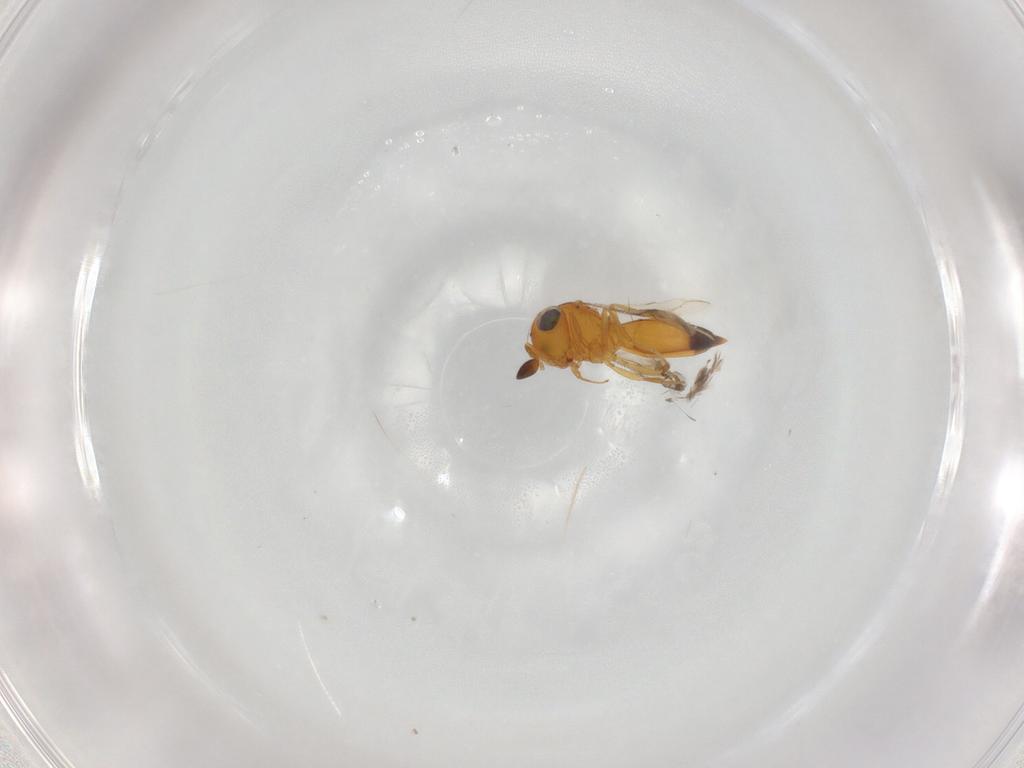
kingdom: Animalia
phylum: Arthropoda
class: Insecta
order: Hymenoptera
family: Scelionidae
